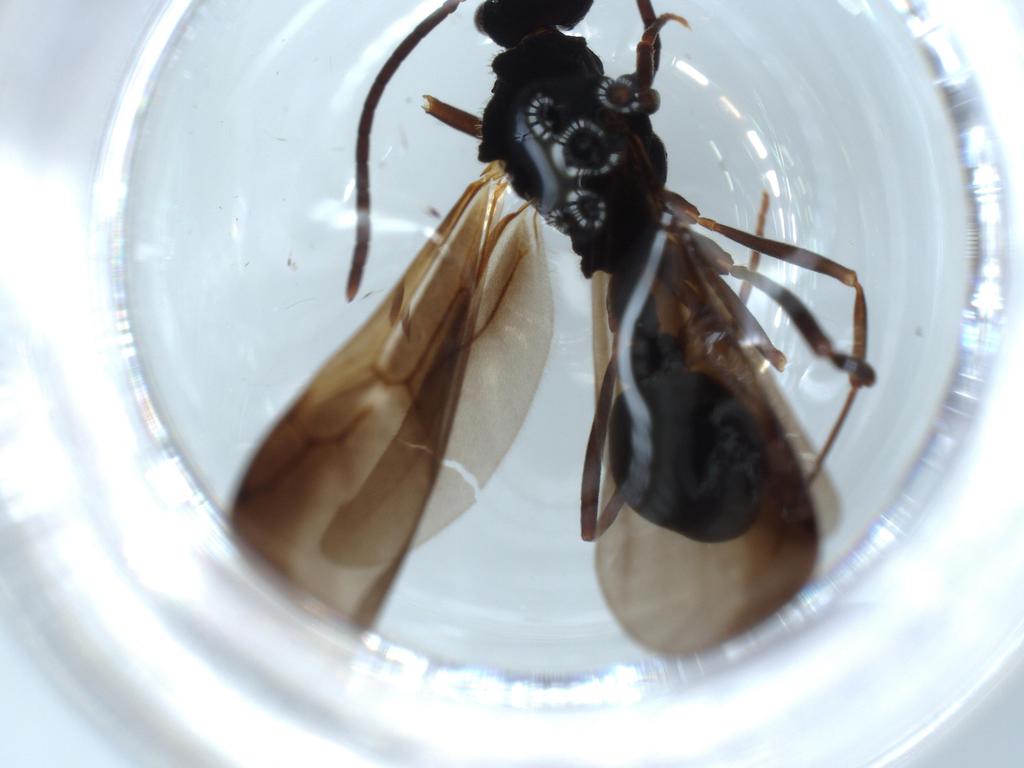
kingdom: Animalia
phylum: Arthropoda
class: Insecta
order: Hymenoptera
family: Formicidae
